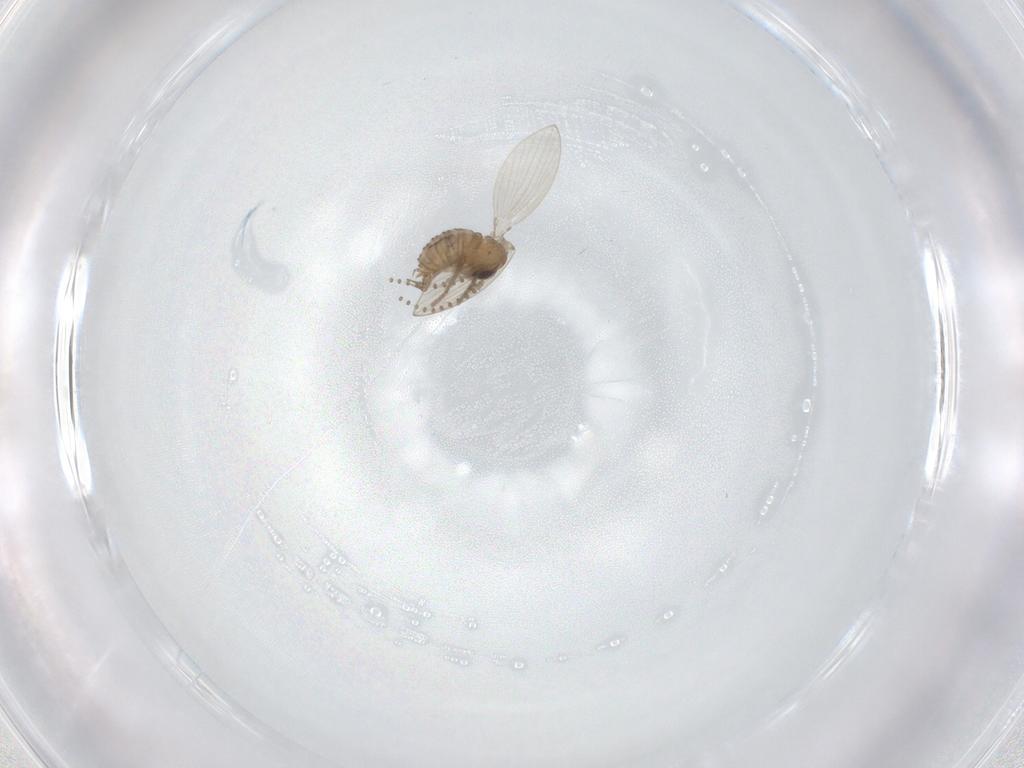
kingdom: Animalia
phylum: Arthropoda
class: Insecta
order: Diptera
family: Psychodidae
